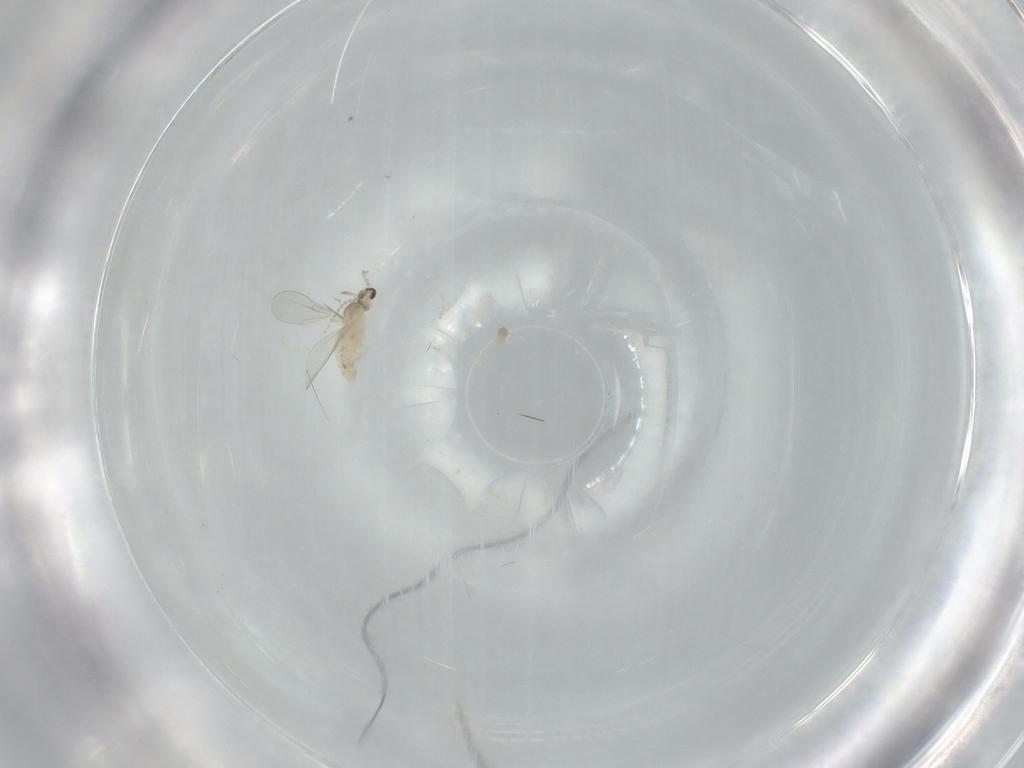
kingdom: Animalia
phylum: Arthropoda
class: Insecta
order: Diptera
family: Cecidomyiidae
